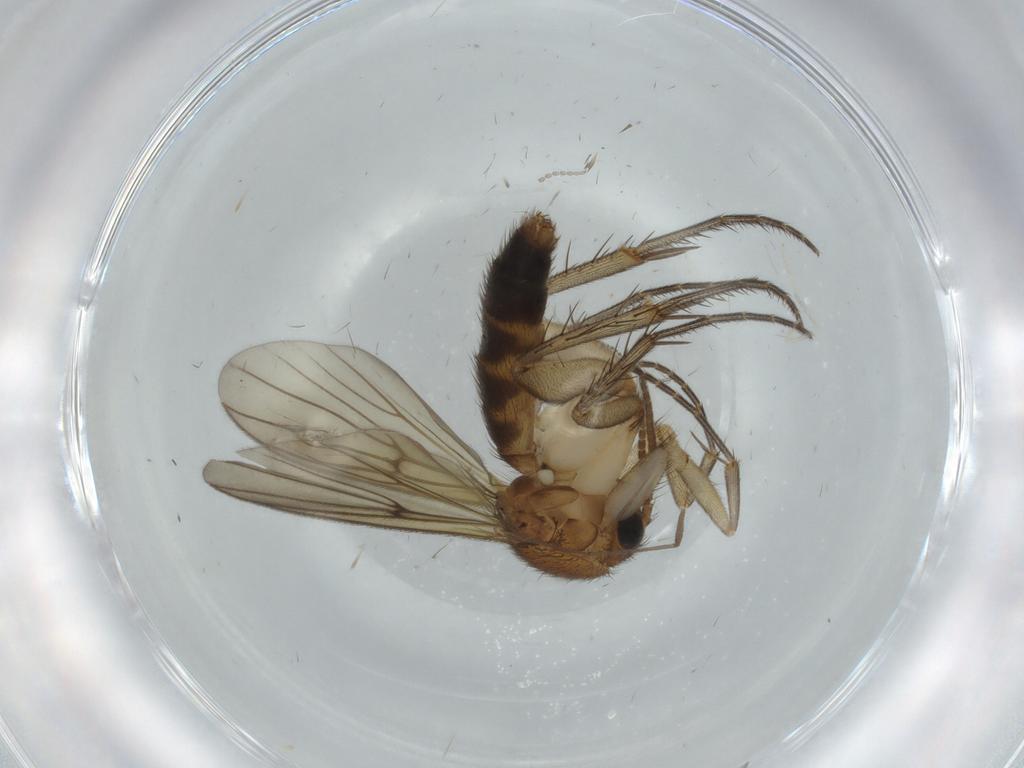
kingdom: Animalia
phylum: Arthropoda
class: Insecta
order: Diptera
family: Mycetophilidae
